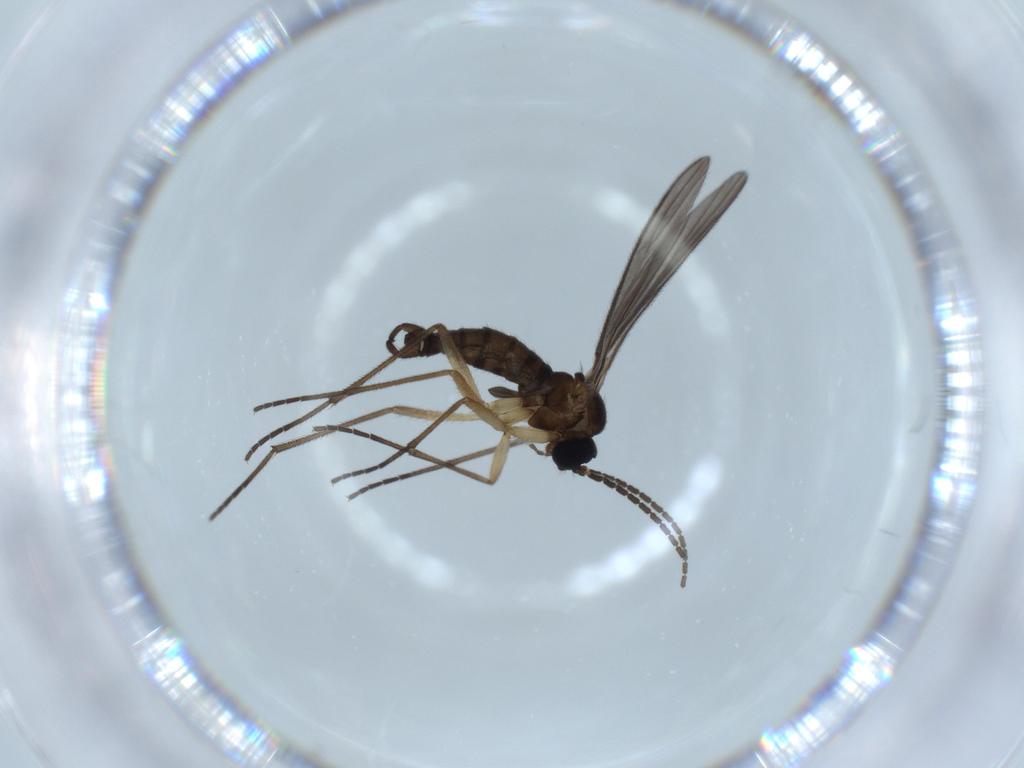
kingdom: Animalia
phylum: Arthropoda
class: Insecta
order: Diptera
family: Sciaridae
